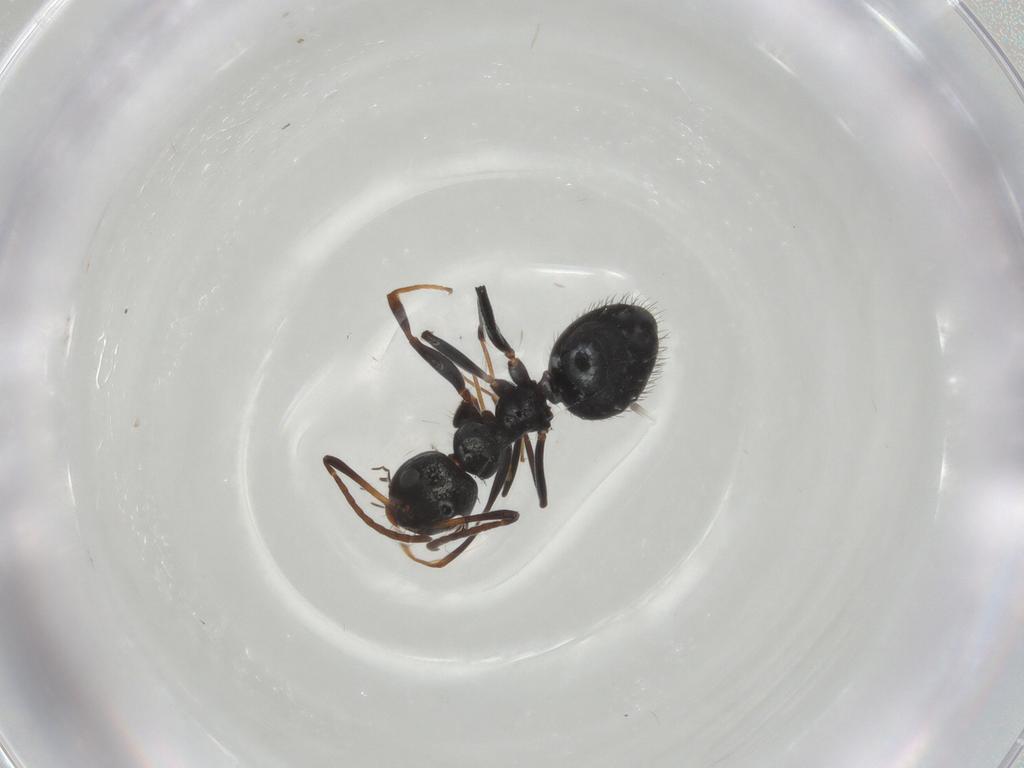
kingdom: Animalia
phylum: Arthropoda
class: Insecta
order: Hymenoptera
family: Formicidae
